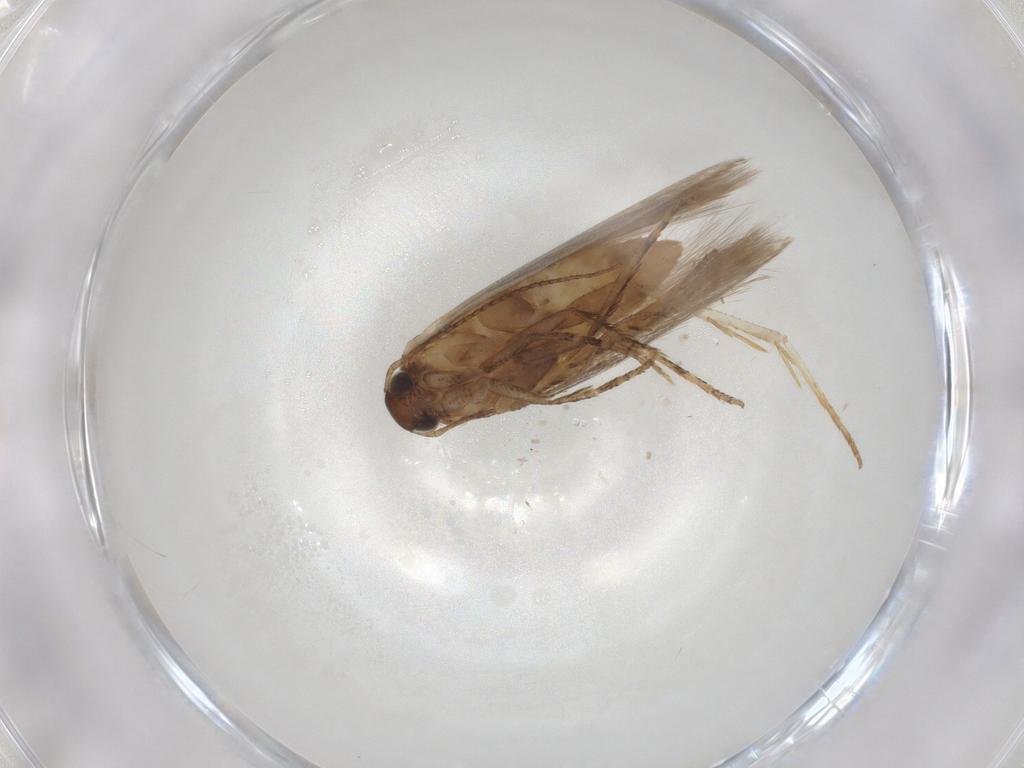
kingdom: Animalia
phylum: Arthropoda
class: Insecta
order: Lepidoptera
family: Gelechiidae
